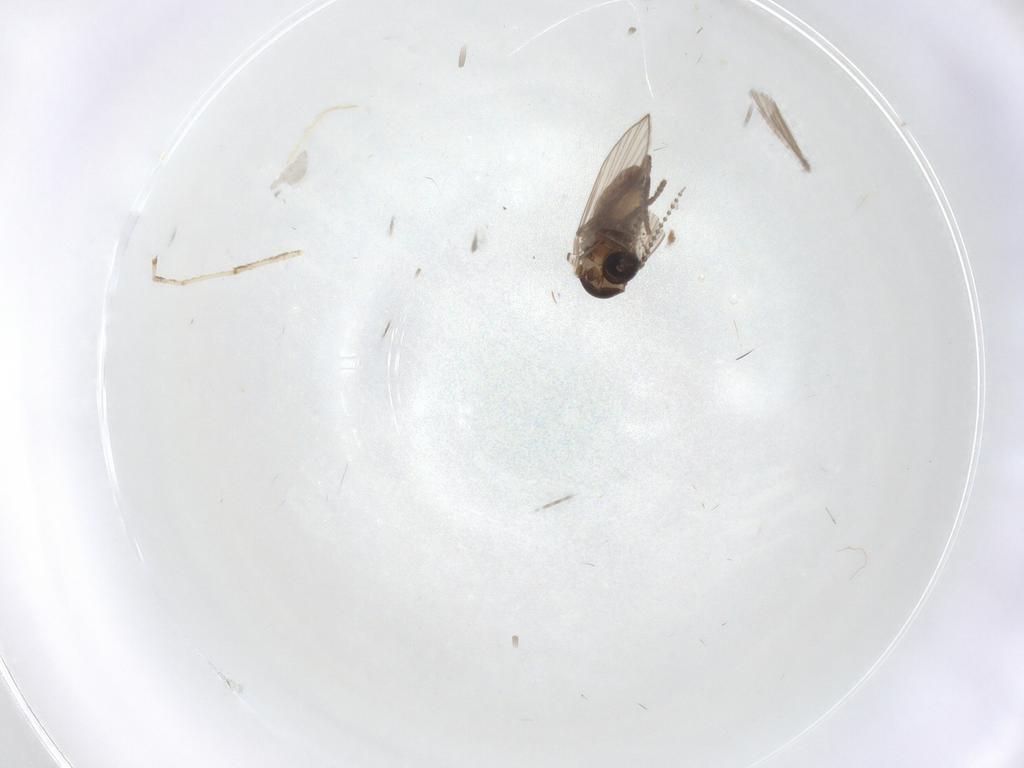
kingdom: Animalia
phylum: Arthropoda
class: Insecta
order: Diptera
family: Psychodidae
